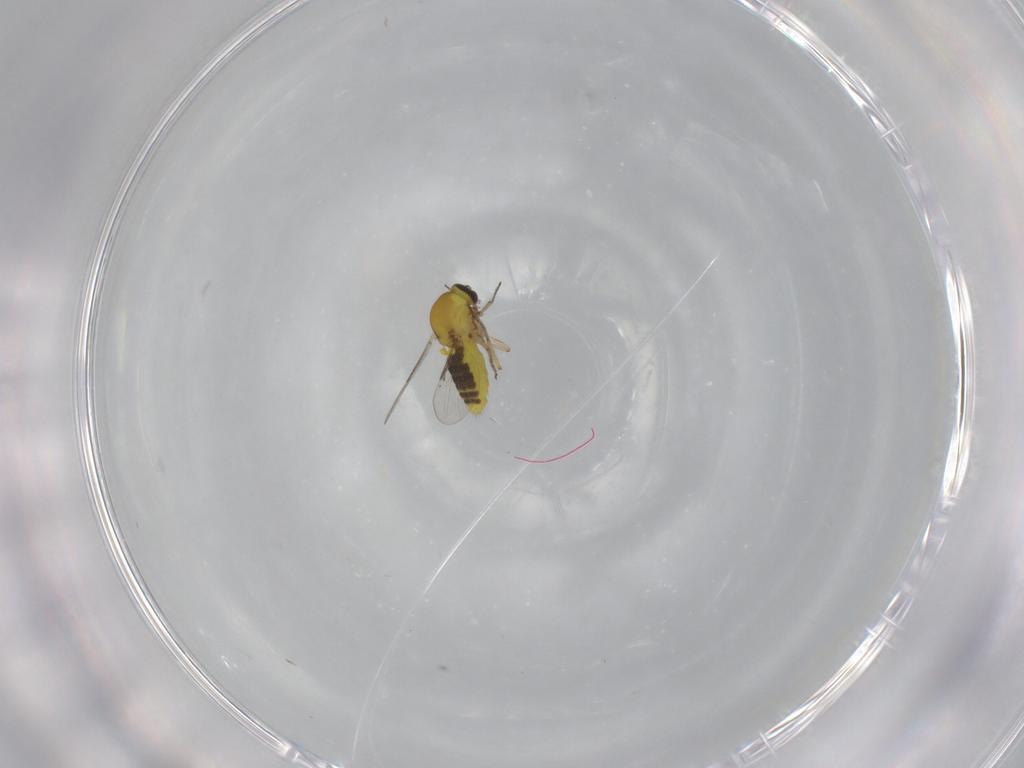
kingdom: Animalia
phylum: Arthropoda
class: Insecta
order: Diptera
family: Ceratopogonidae
